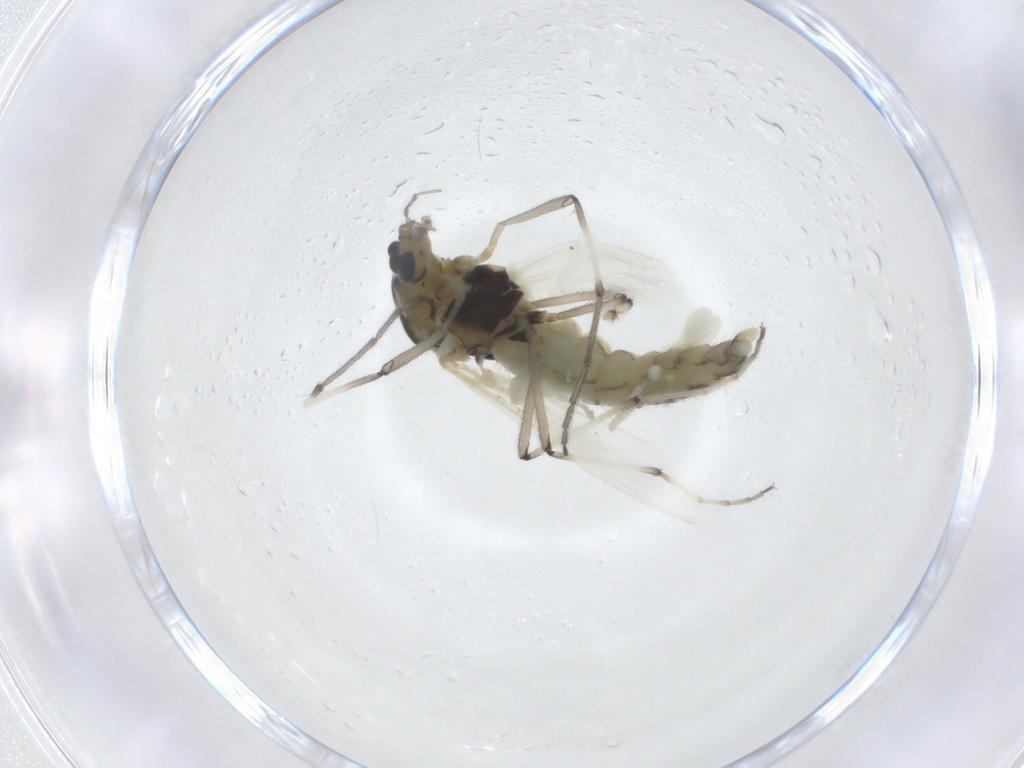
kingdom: Animalia
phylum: Arthropoda
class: Insecta
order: Diptera
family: Chironomidae
